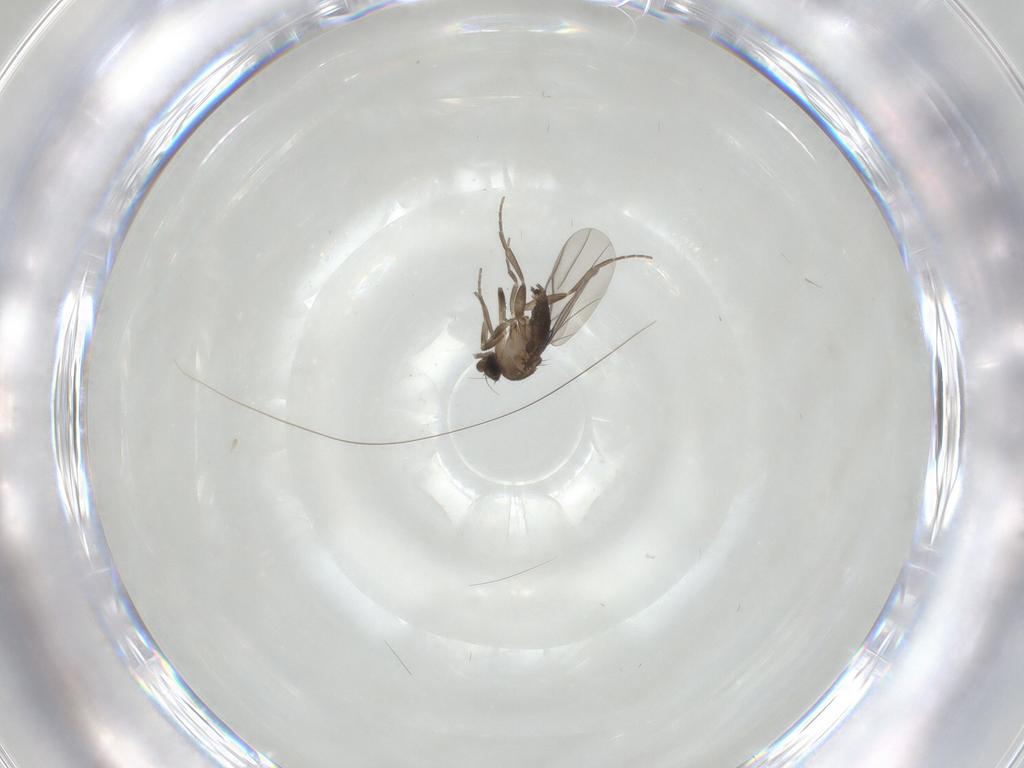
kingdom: Animalia
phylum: Arthropoda
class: Insecta
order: Diptera
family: Phoridae
